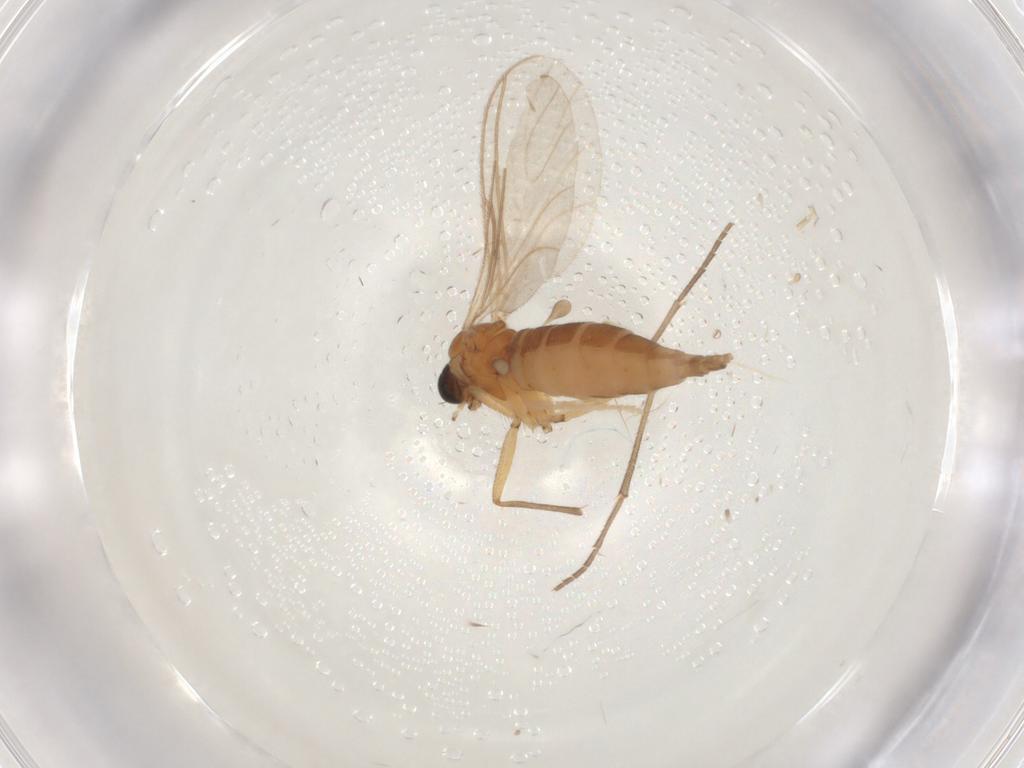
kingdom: Animalia
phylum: Arthropoda
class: Insecta
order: Diptera
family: Sciaridae
